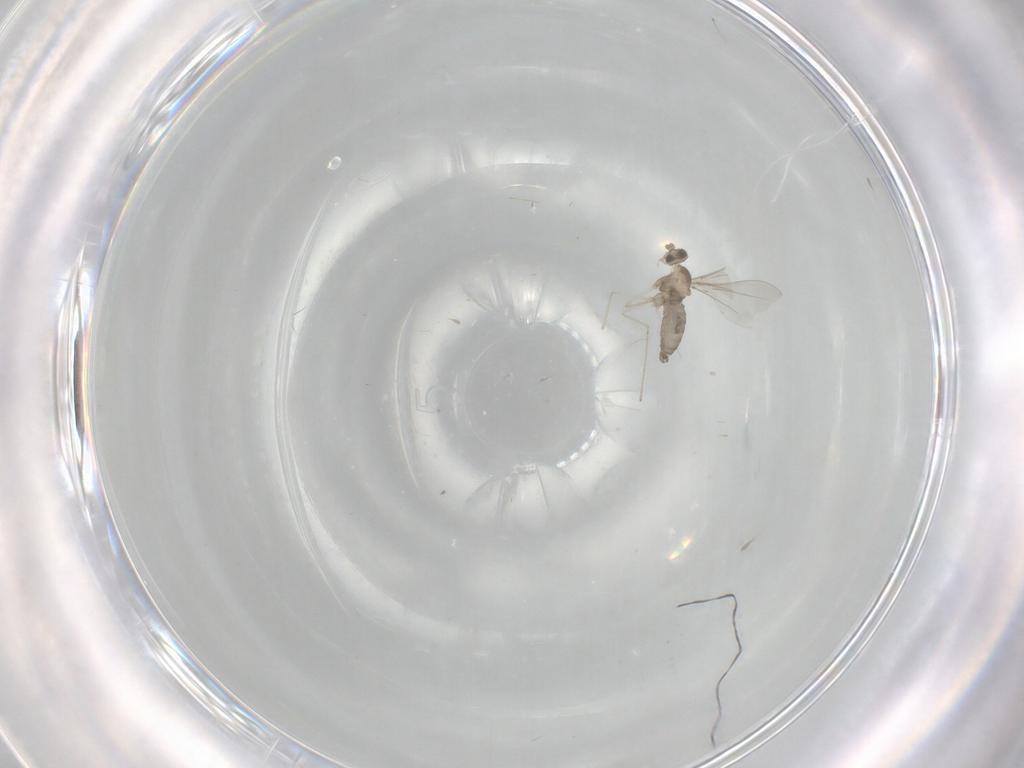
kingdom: Animalia
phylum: Arthropoda
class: Insecta
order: Diptera
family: Cecidomyiidae
